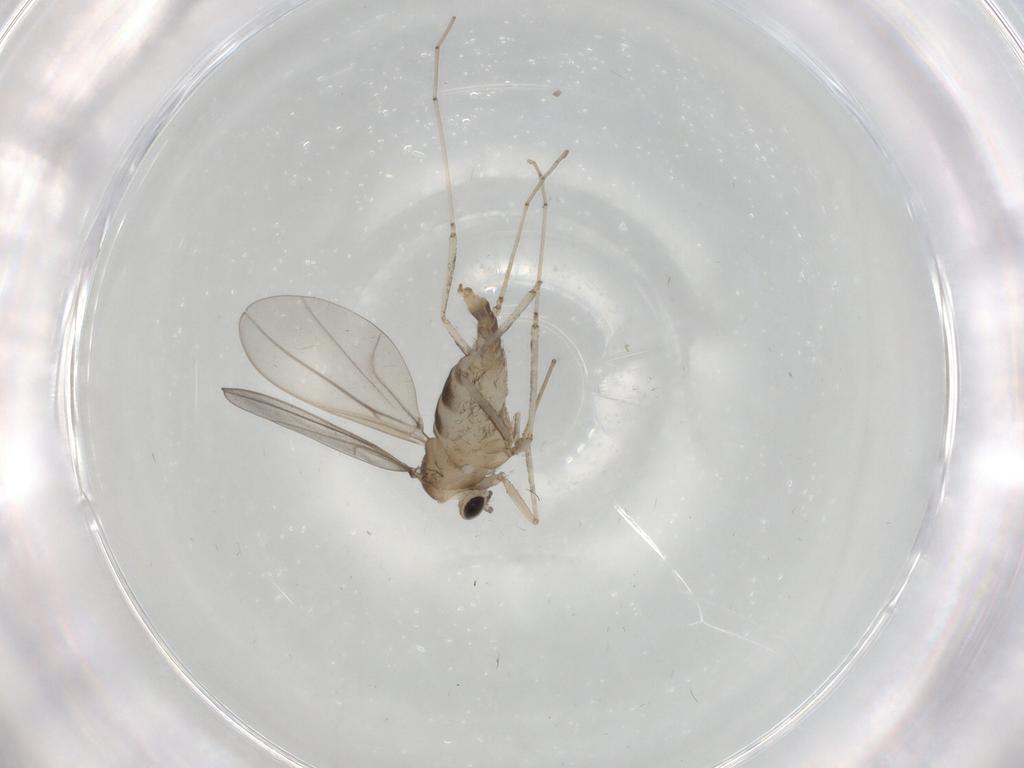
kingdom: Animalia
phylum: Arthropoda
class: Insecta
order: Diptera
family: Cecidomyiidae
